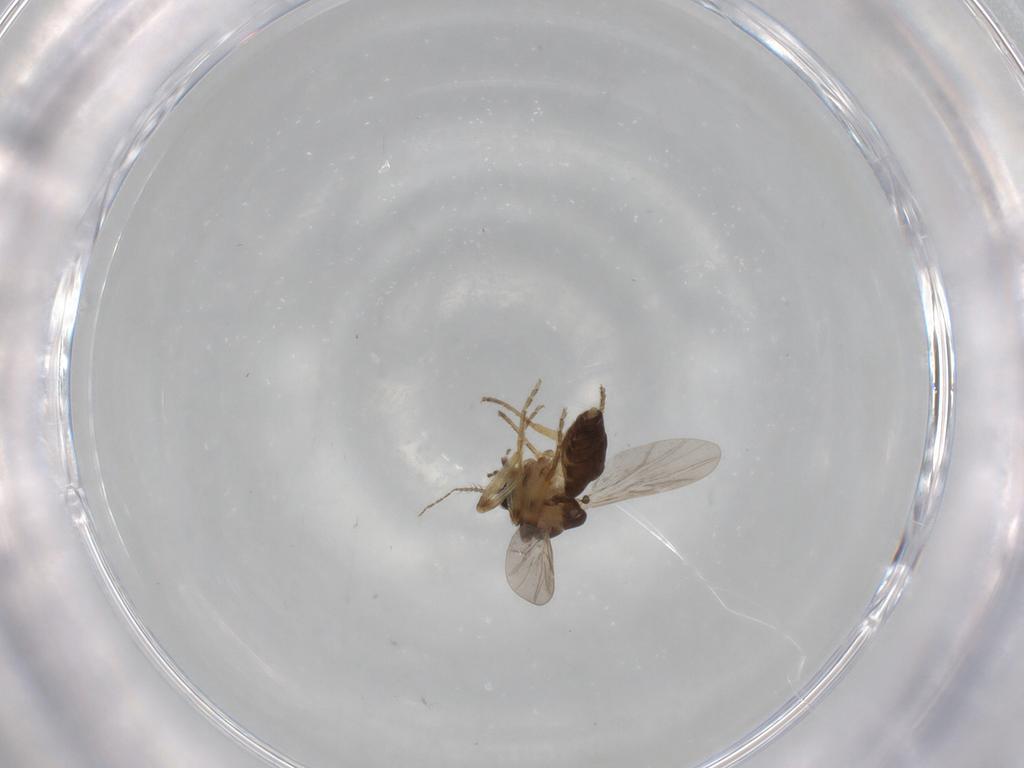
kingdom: Animalia
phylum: Arthropoda
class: Insecta
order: Diptera
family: Ceratopogonidae
